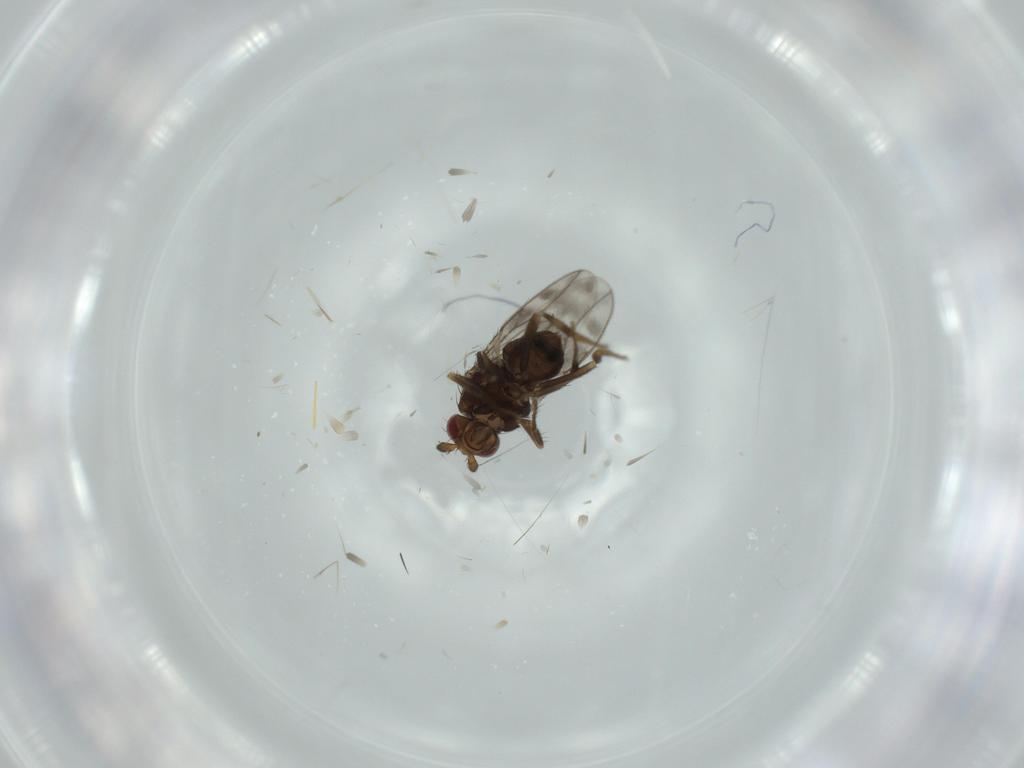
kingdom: Animalia
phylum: Arthropoda
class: Insecta
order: Diptera
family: Sphaeroceridae
